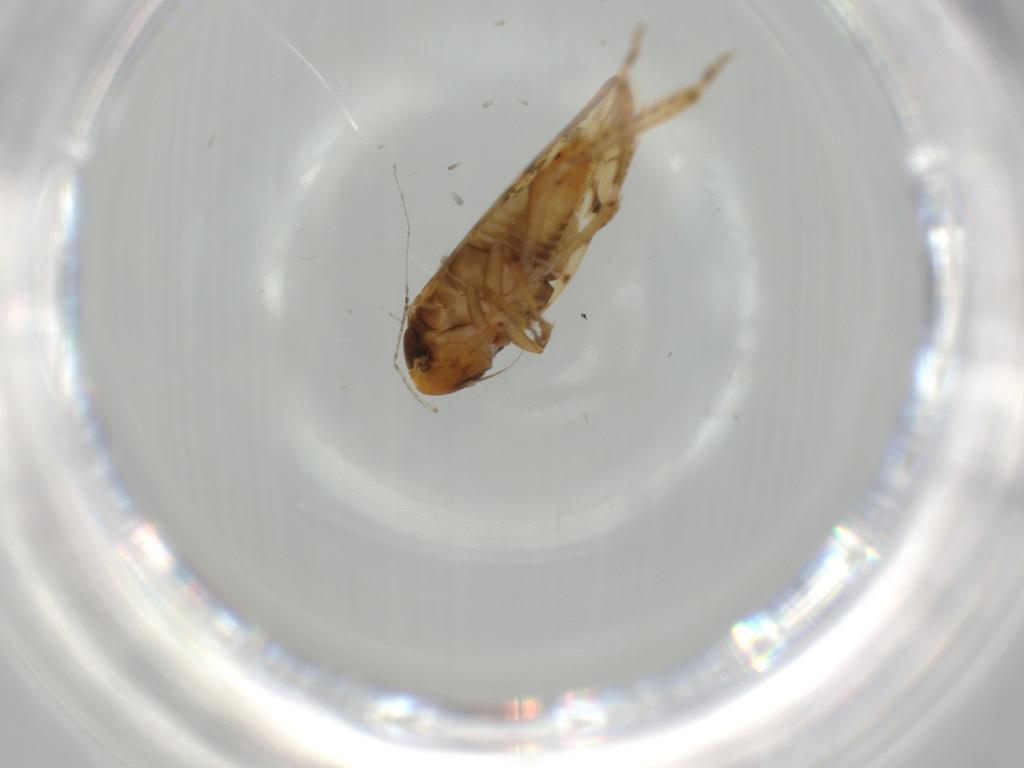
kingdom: Animalia
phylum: Arthropoda
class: Insecta
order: Hemiptera
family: Cicadellidae
